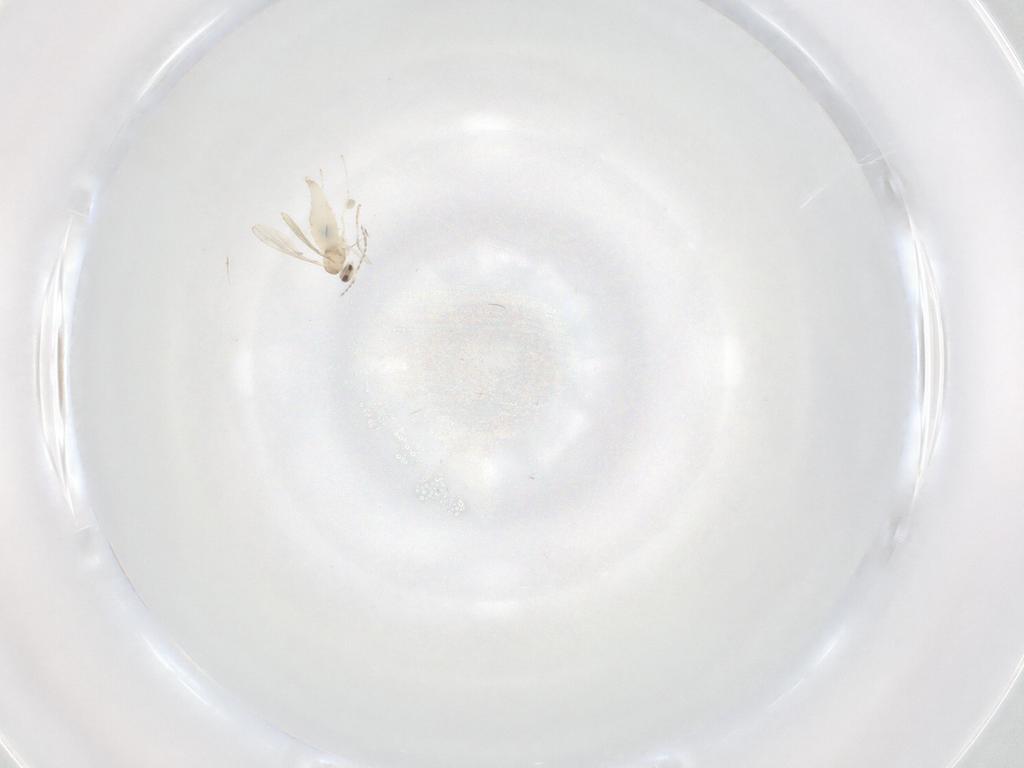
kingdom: Animalia
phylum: Arthropoda
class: Insecta
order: Diptera
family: Cecidomyiidae
